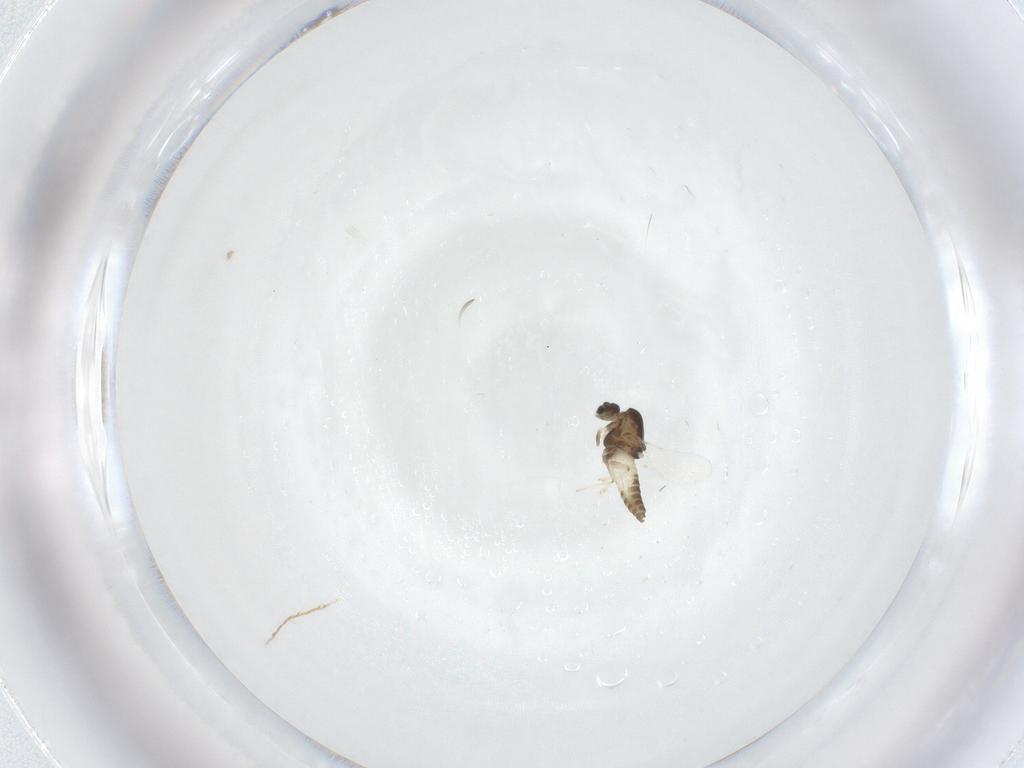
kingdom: Animalia
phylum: Arthropoda
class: Insecta
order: Diptera
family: Chironomidae
